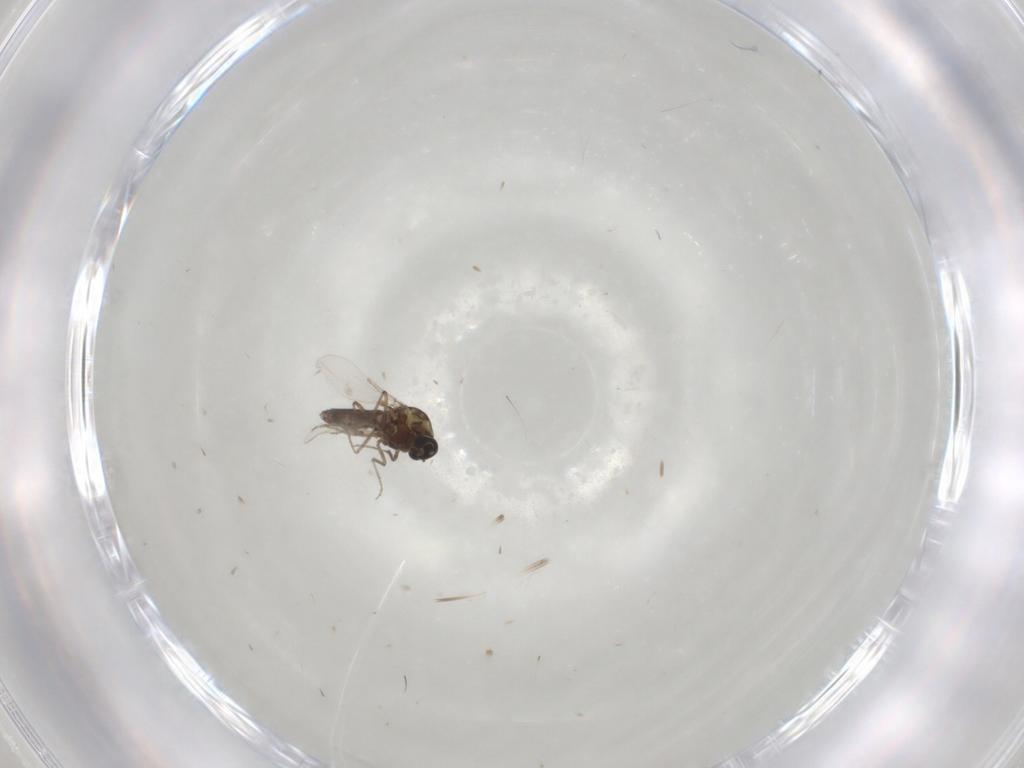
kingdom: Animalia
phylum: Arthropoda
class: Insecta
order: Diptera
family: Ceratopogonidae
